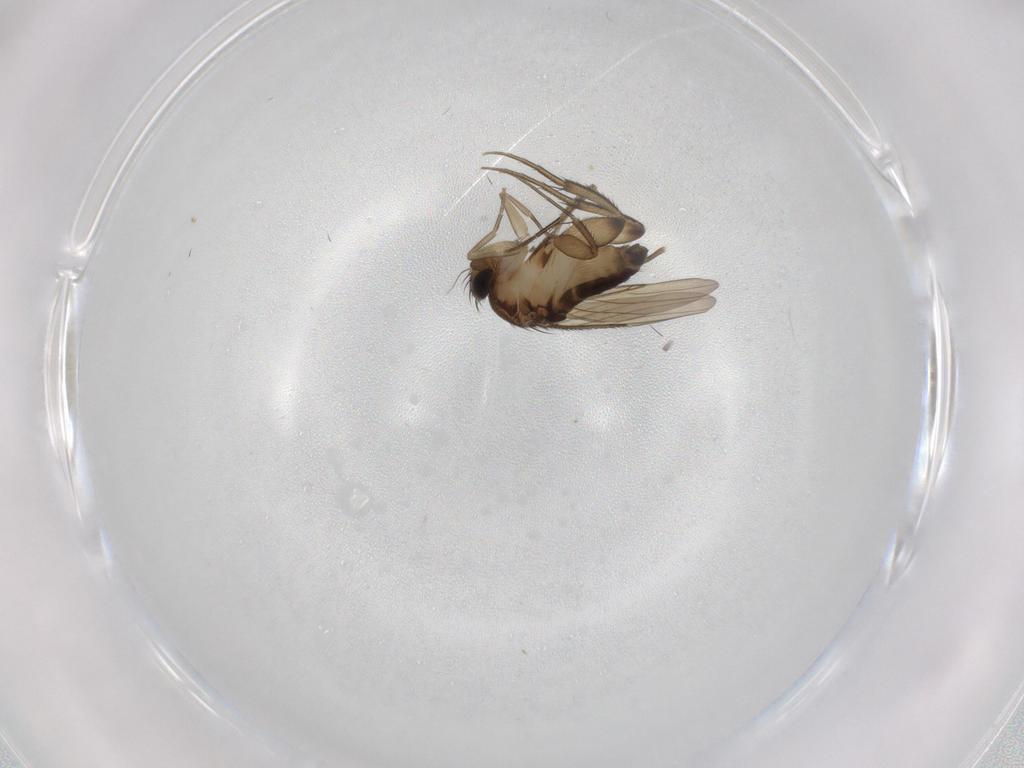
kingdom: Animalia
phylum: Arthropoda
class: Insecta
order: Diptera
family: Phoridae
